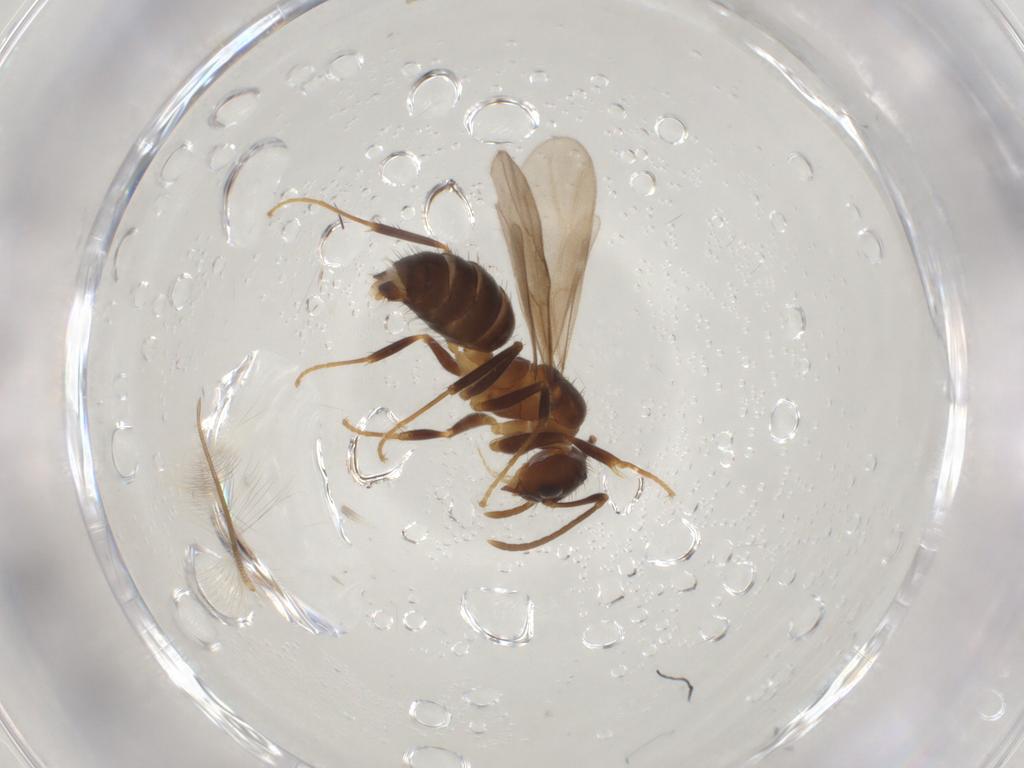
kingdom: Animalia
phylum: Arthropoda
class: Insecta
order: Hymenoptera
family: Formicidae
